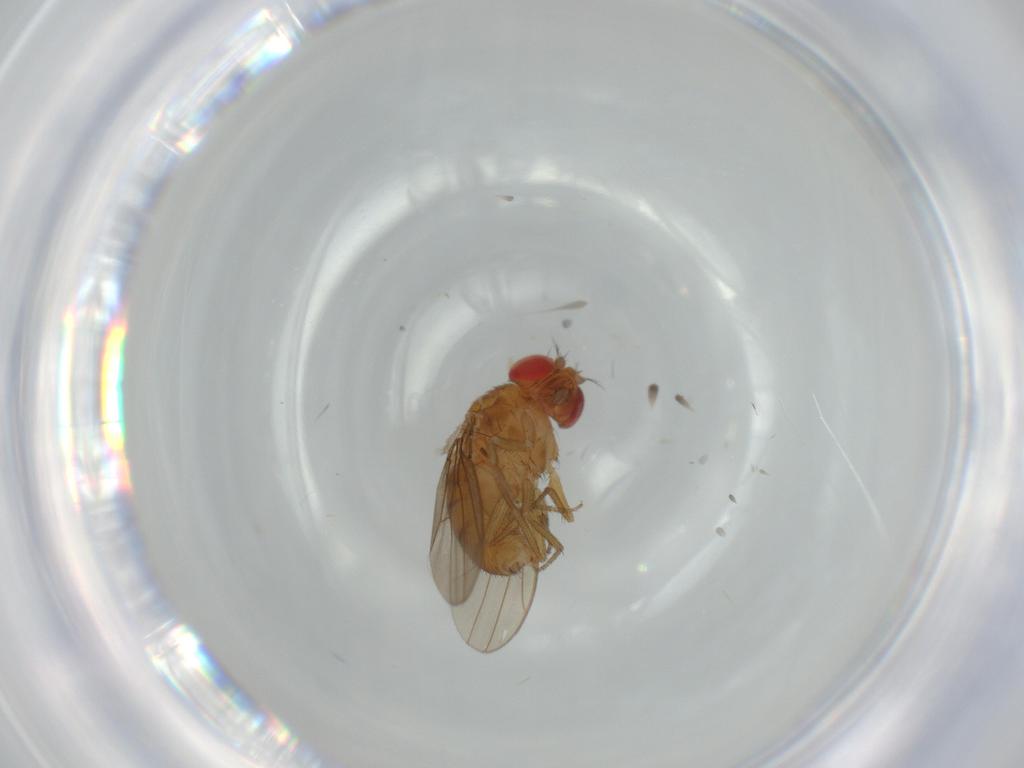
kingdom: Animalia
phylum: Arthropoda
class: Insecta
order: Diptera
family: Drosophilidae
